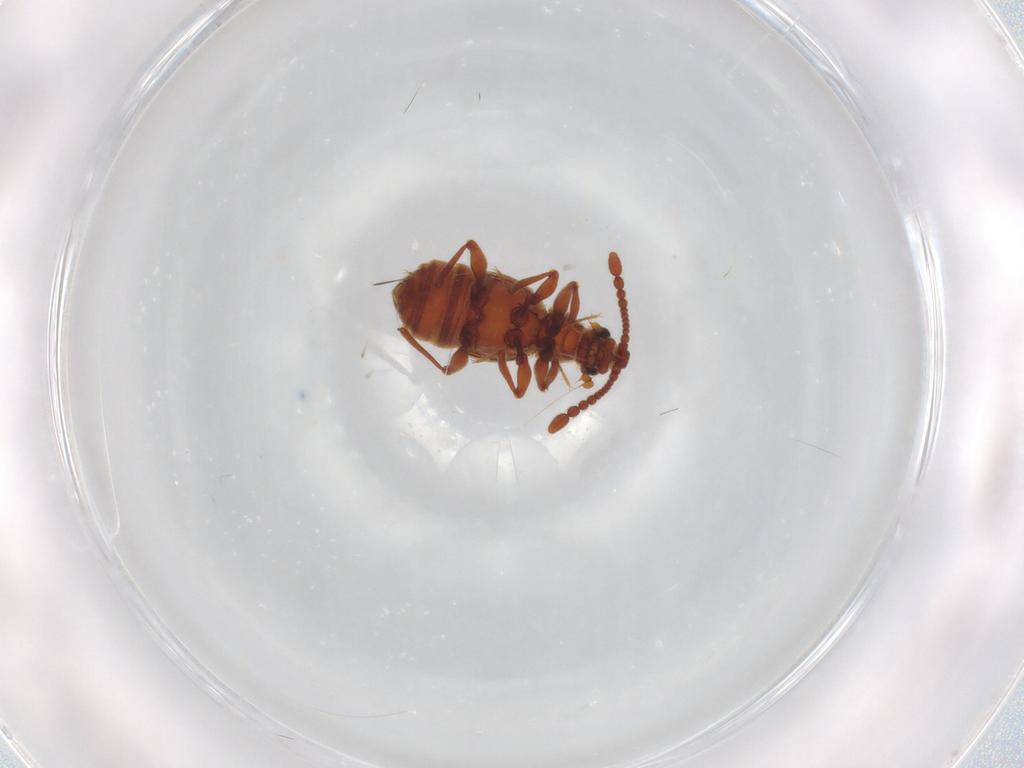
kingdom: Animalia
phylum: Arthropoda
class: Insecta
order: Coleoptera
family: Staphylinidae
